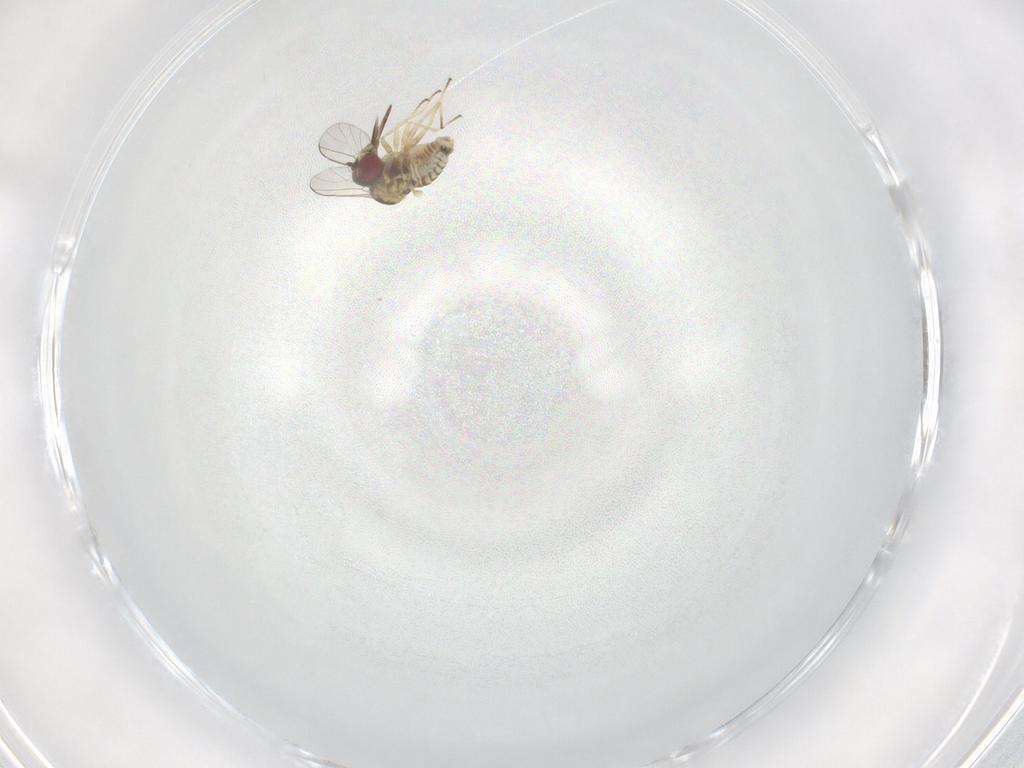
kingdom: Animalia
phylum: Arthropoda
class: Insecta
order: Diptera
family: Bombyliidae
